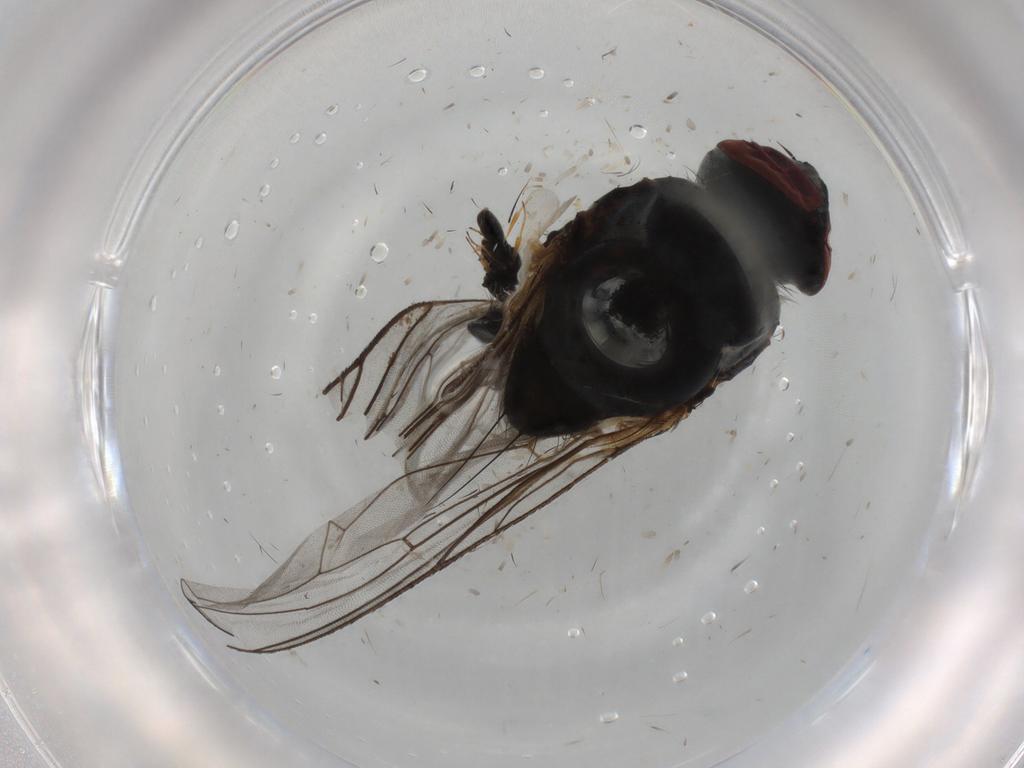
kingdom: Animalia
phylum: Arthropoda
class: Insecta
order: Diptera
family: Anthomyiidae
